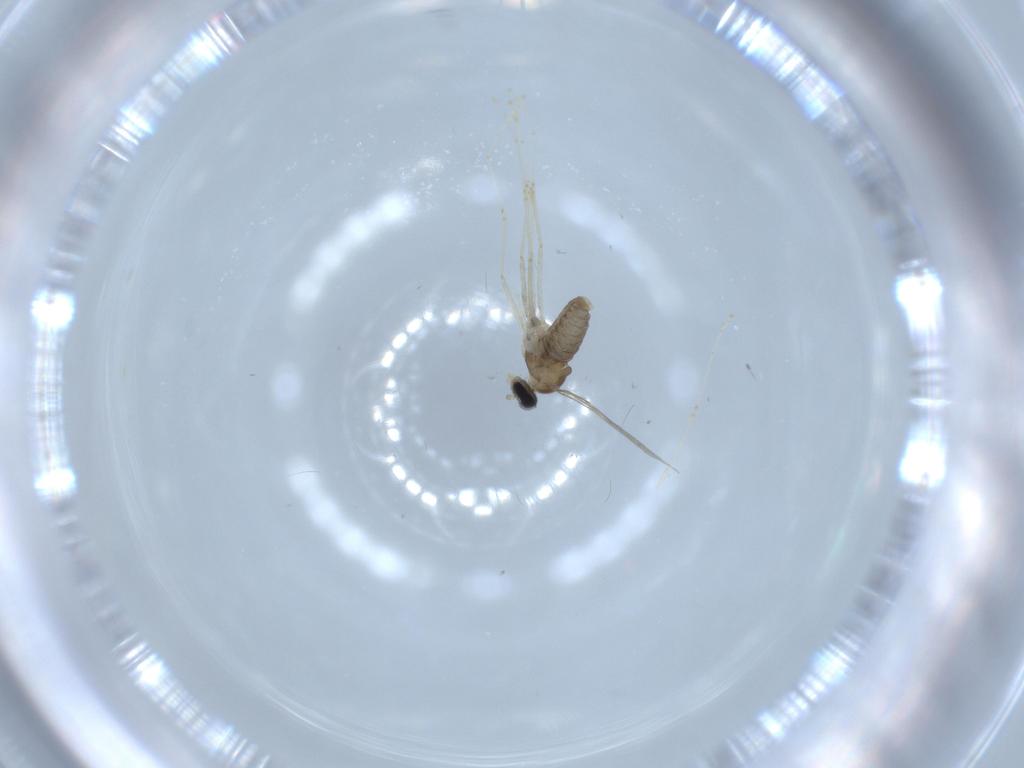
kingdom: Animalia
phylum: Arthropoda
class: Insecta
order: Diptera
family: Cecidomyiidae
